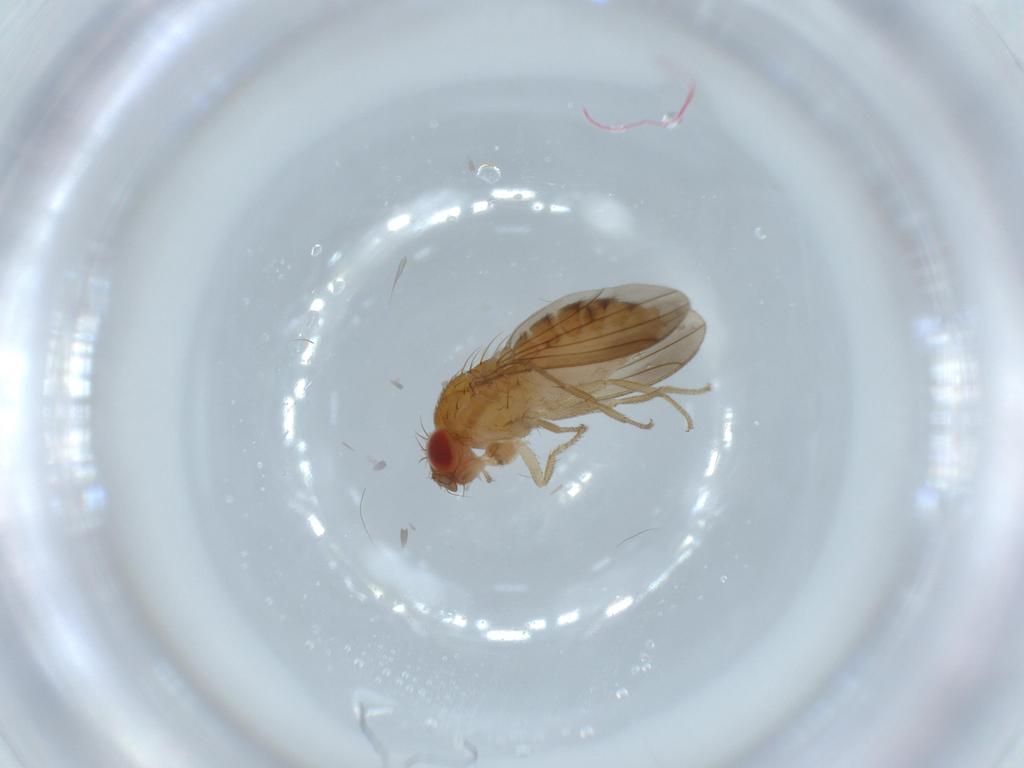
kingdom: Animalia
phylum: Arthropoda
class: Insecta
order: Diptera
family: Drosophilidae
